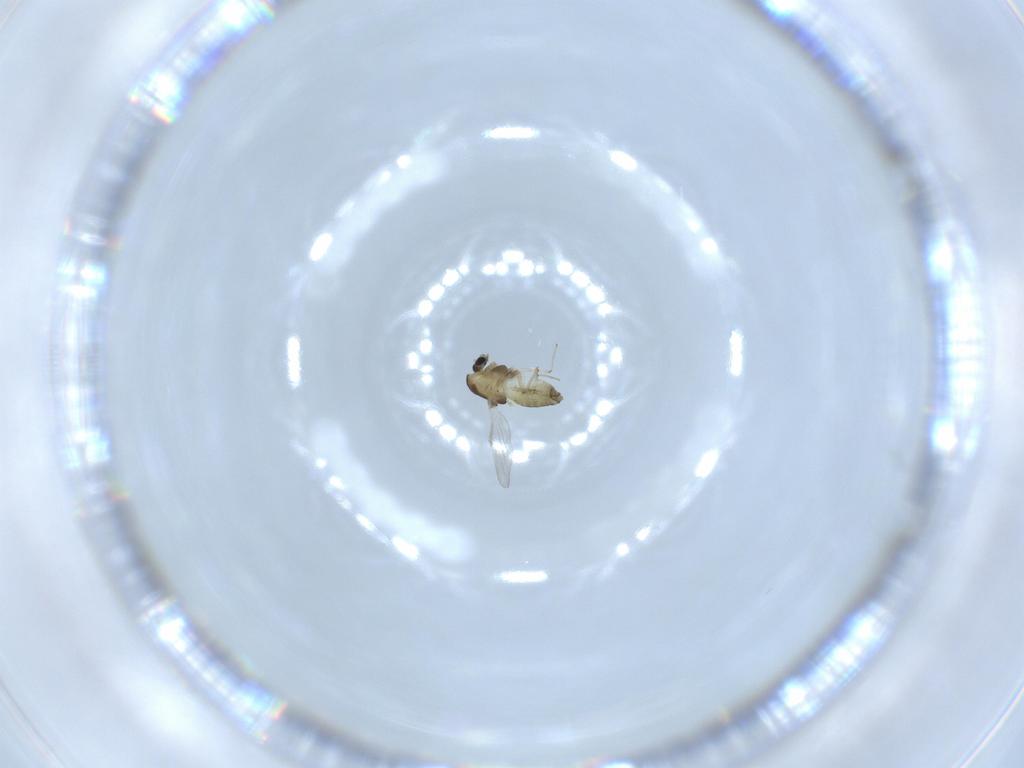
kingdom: Animalia
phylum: Arthropoda
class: Insecta
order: Diptera
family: Chironomidae
